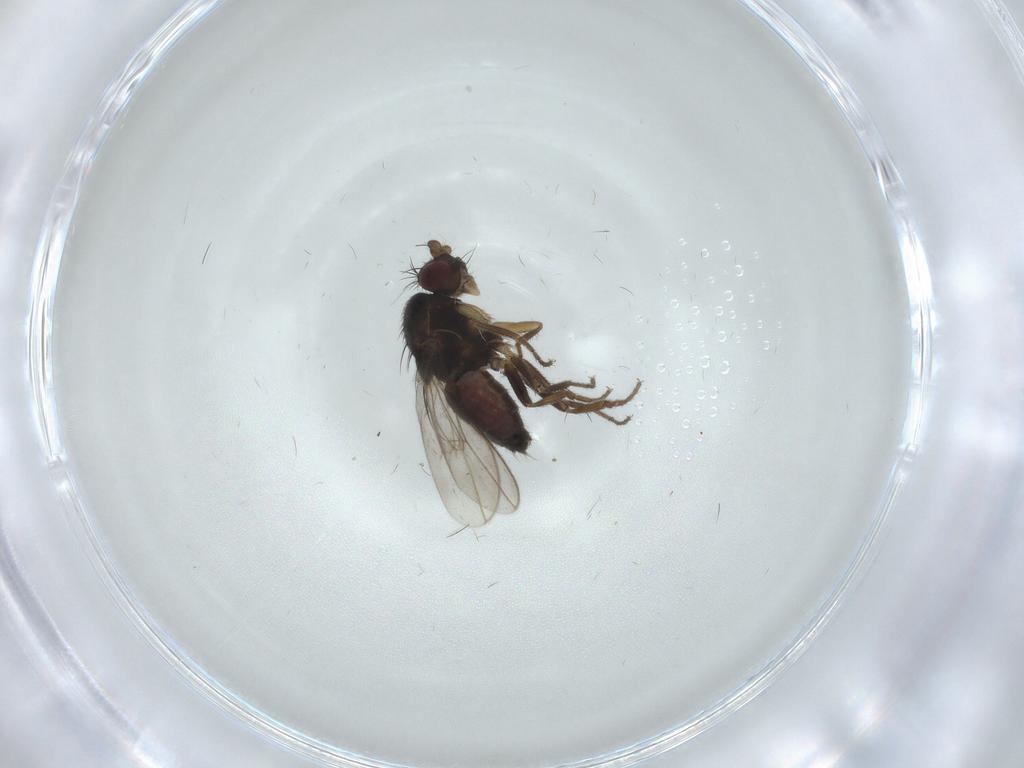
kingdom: Animalia
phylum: Arthropoda
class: Insecta
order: Diptera
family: Sphaeroceridae
